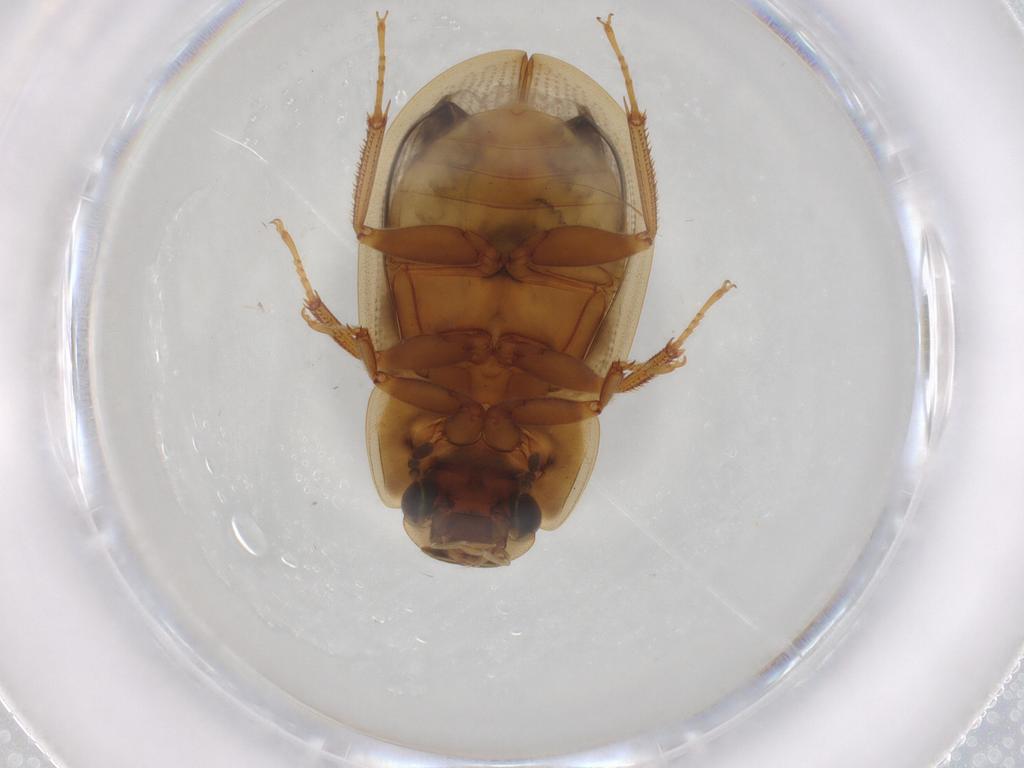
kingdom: Animalia
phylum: Arthropoda
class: Insecta
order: Coleoptera
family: Hydrophilidae
